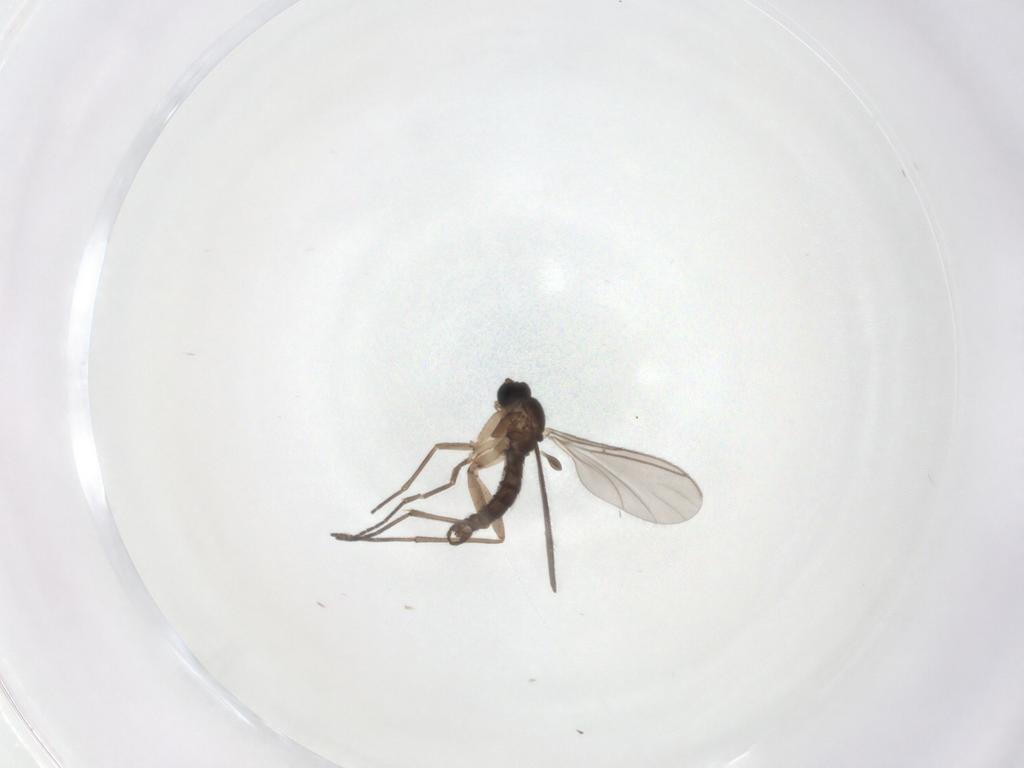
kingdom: Animalia
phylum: Arthropoda
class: Insecta
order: Diptera
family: Sciaridae
